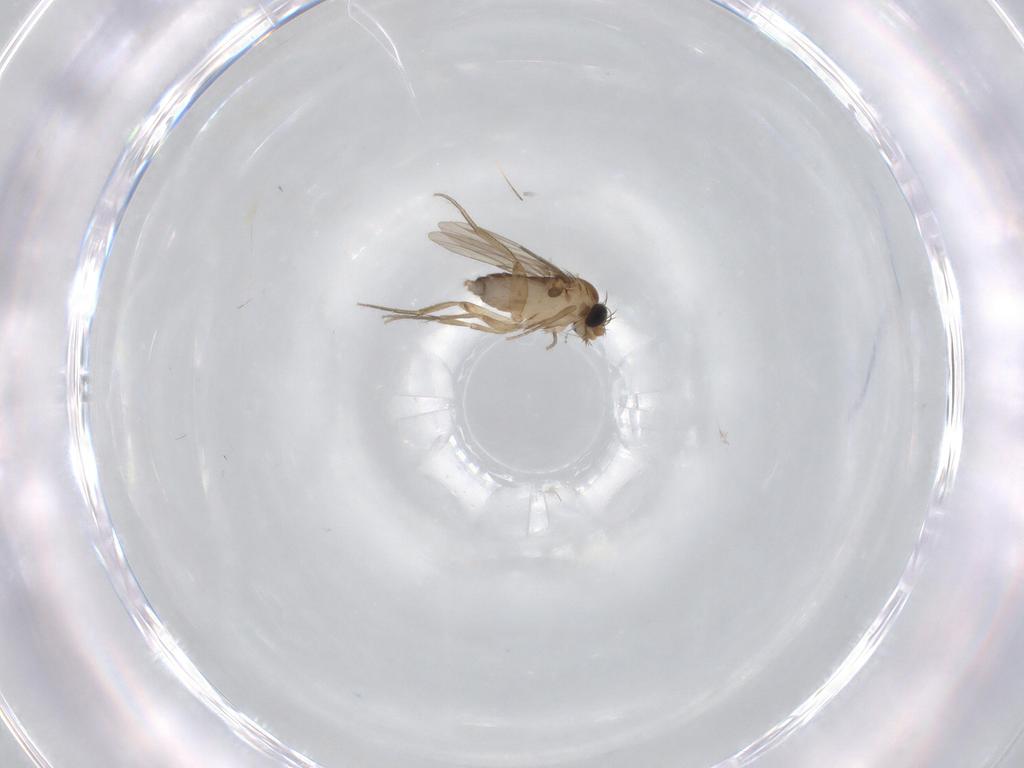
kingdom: Animalia
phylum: Arthropoda
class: Insecta
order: Diptera
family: Phoridae
